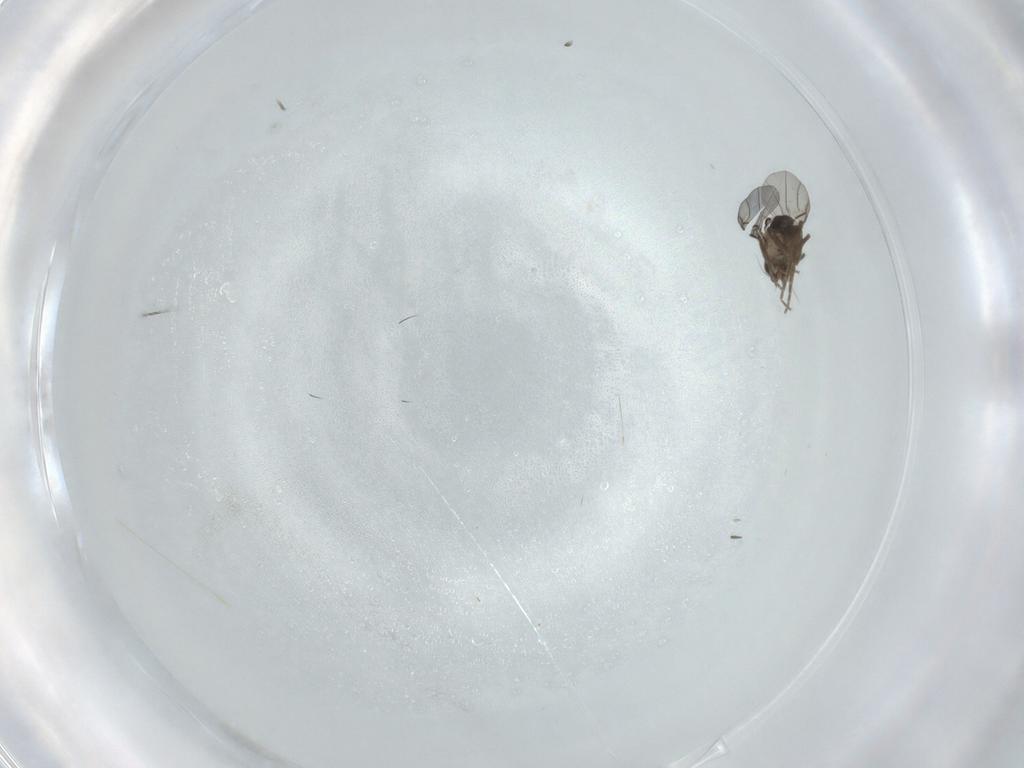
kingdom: Animalia
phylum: Arthropoda
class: Insecta
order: Diptera
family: Phoridae
